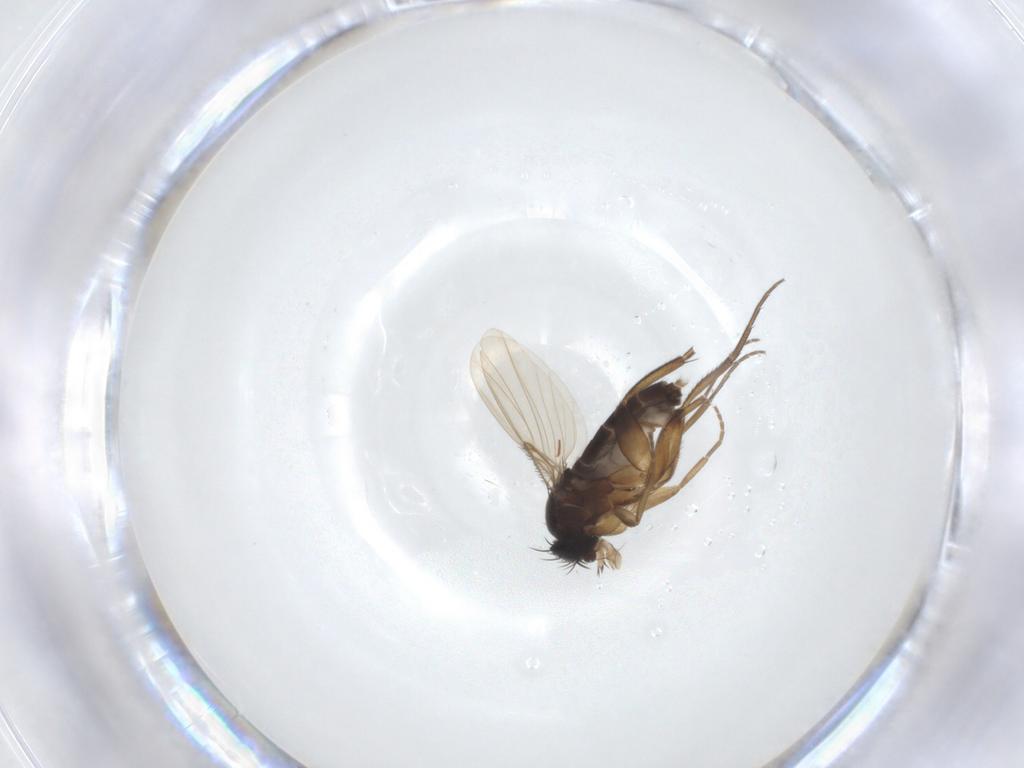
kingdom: Animalia
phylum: Arthropoda
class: Insecta
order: Diptera
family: Phoridae
